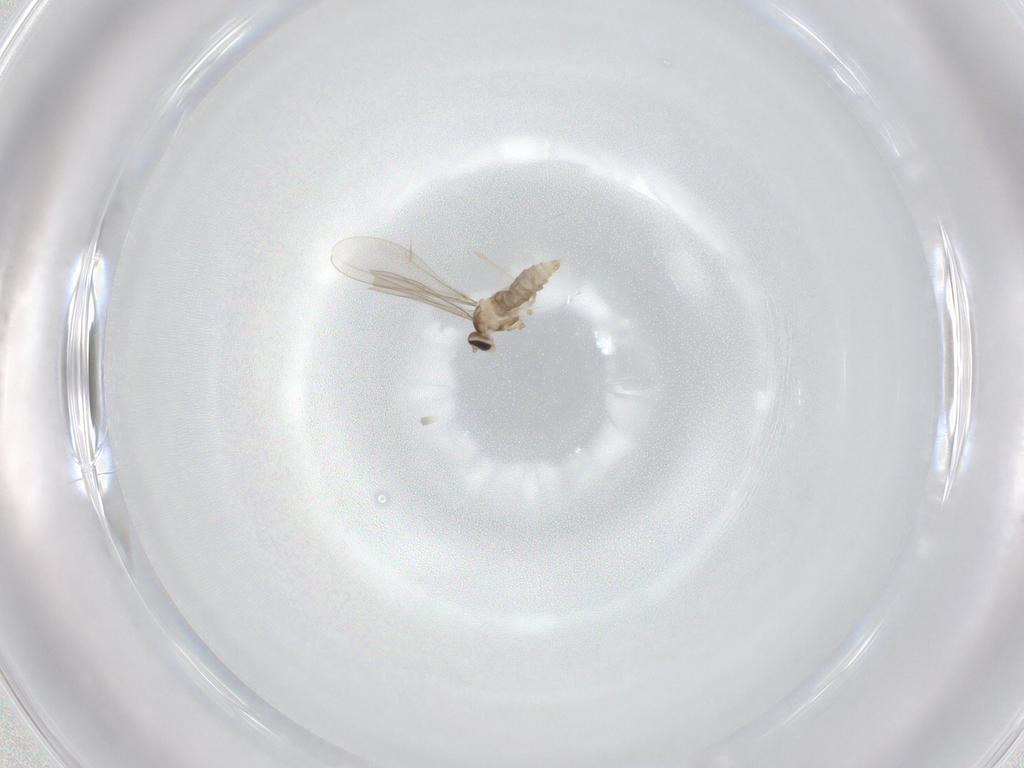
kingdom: Animalia
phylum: Arthropoda
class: Insecta
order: Diptera
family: Cecidomyiidae
